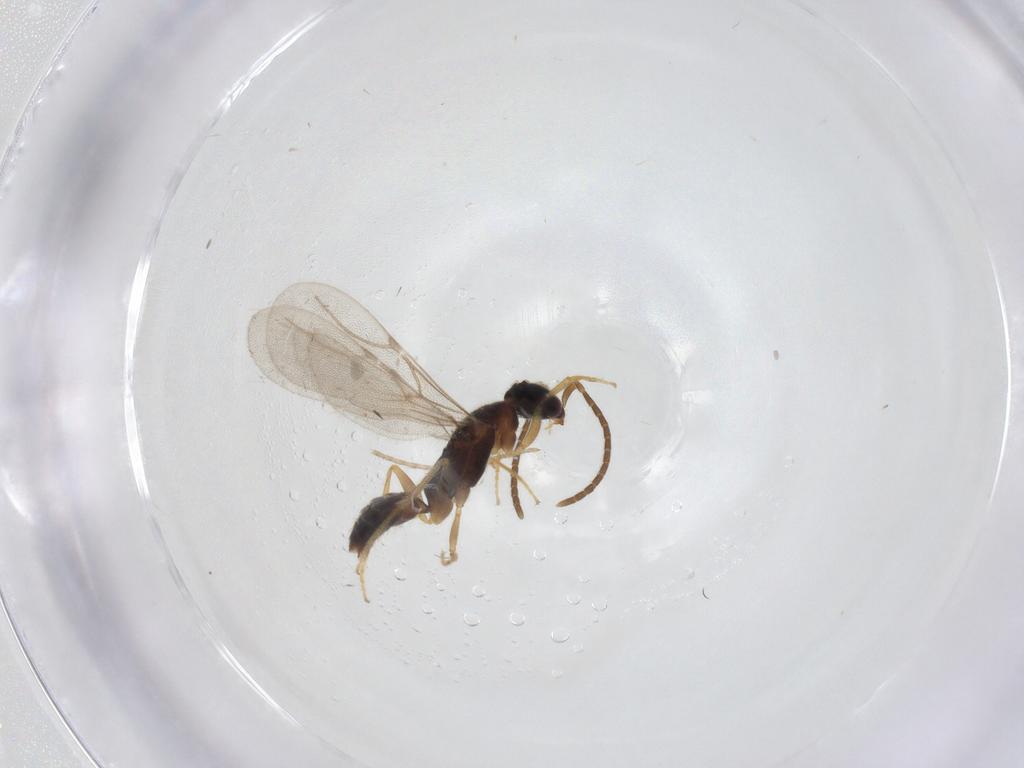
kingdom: Animalia
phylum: Arthropoda
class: Insecta
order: Hymenoptera
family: Bethylidae
